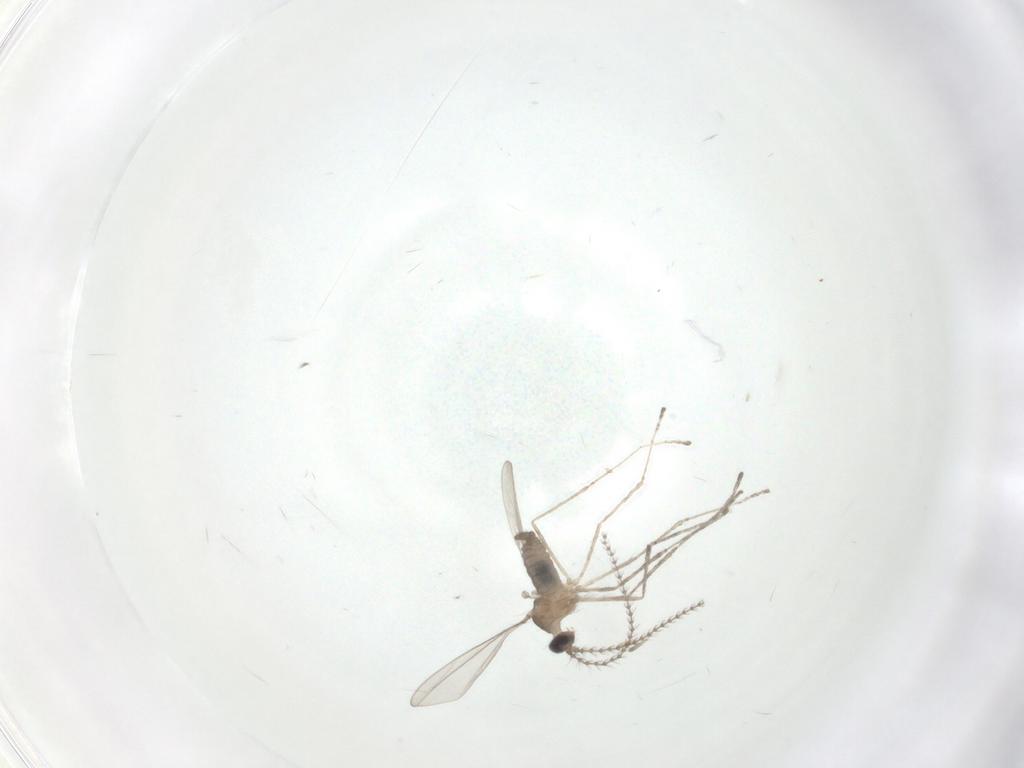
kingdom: Animalia
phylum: Arthropoda
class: Insecta
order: Diptera
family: Cecidomyiidae
